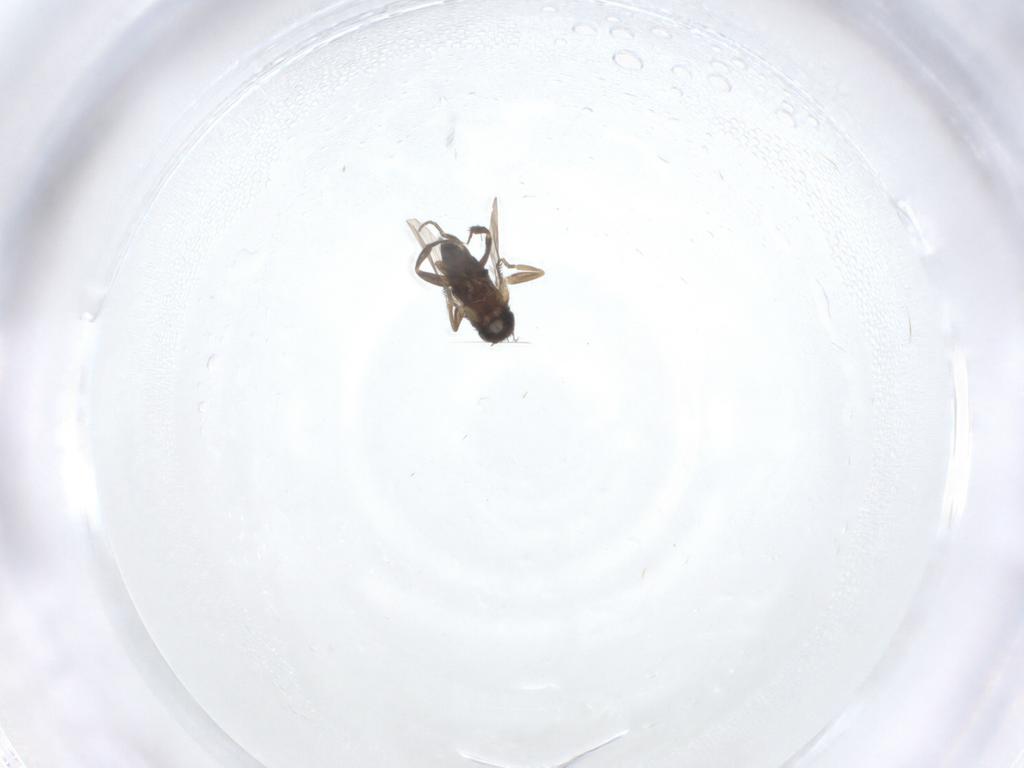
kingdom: Animalia
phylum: Arthropoda
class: Insecta
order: Diptera
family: Phoridae
